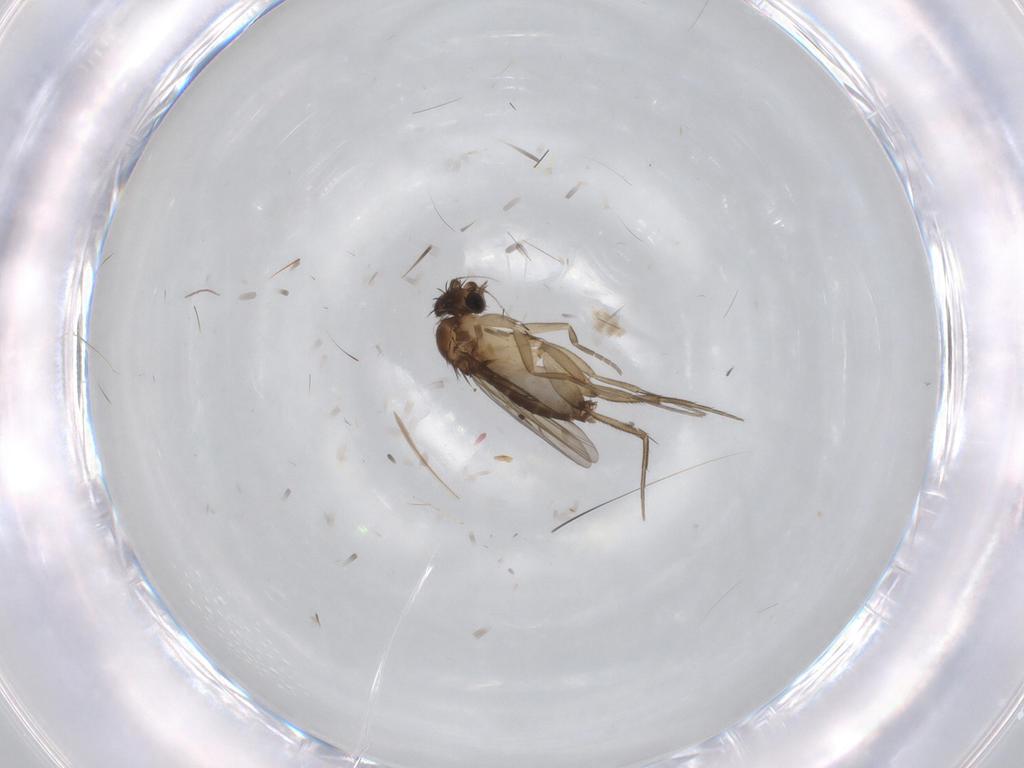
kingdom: Animalia
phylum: Arthropoda
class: Insecta
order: Diptera
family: Phoridae
